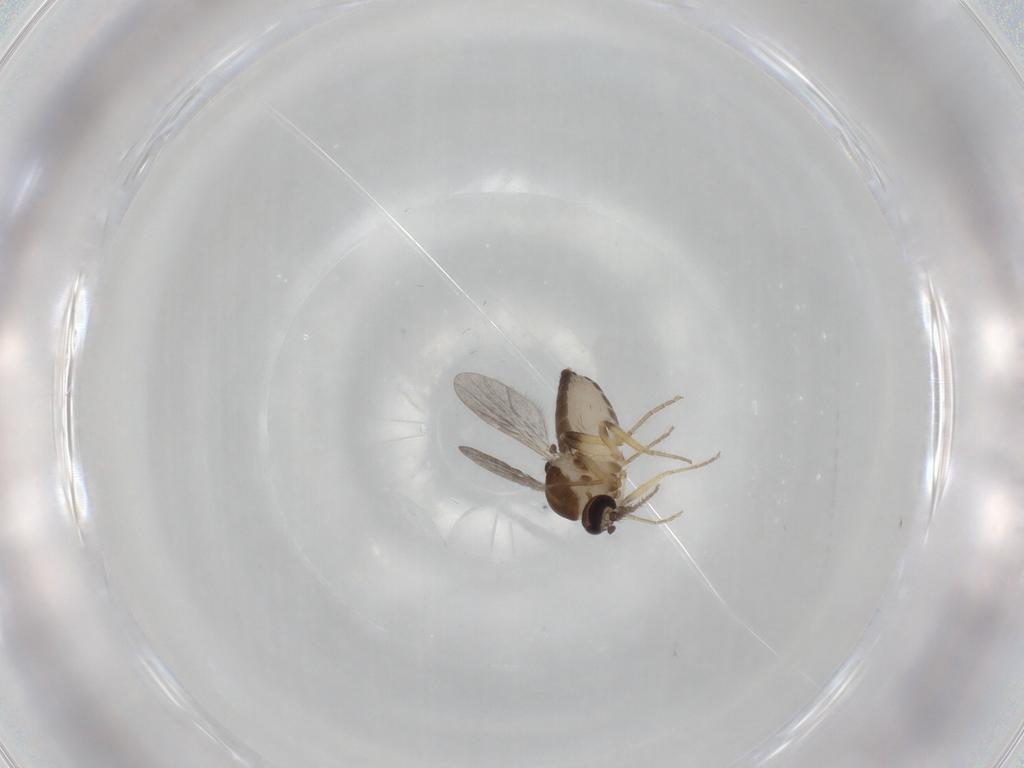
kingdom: Animalia
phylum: Arthropoda
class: Insecta
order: Diptera
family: Ceratopogonidae
